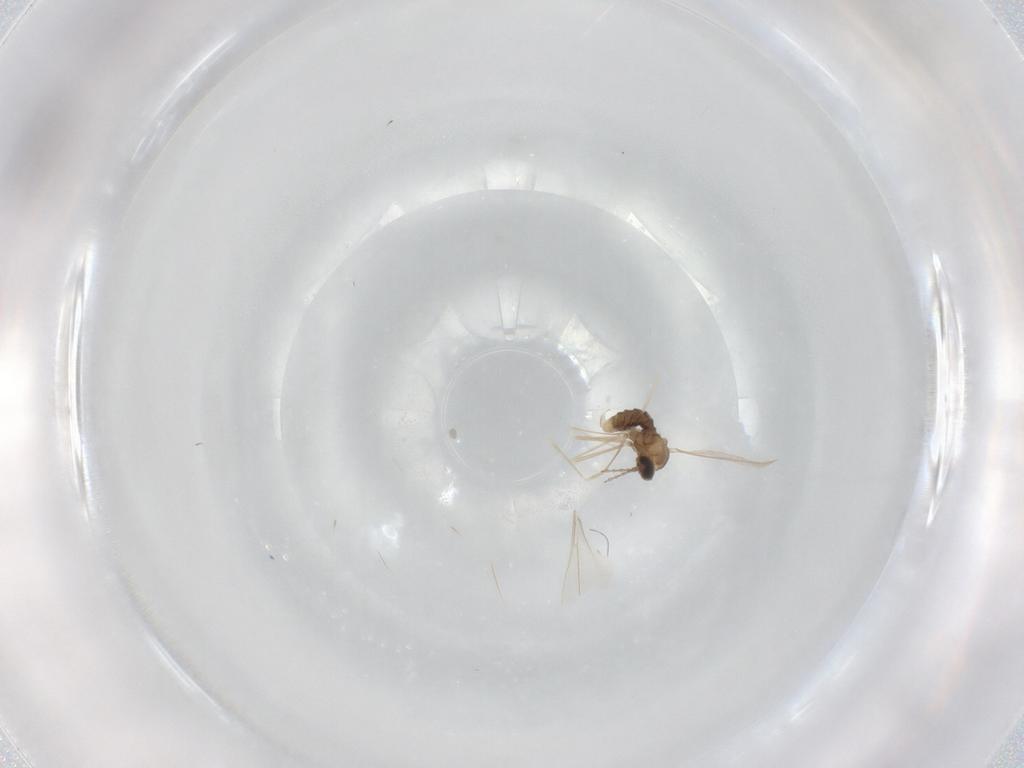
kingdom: Animalia
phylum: Arthropoda
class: Insecta
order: Diptera
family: Cecidomyiidae
